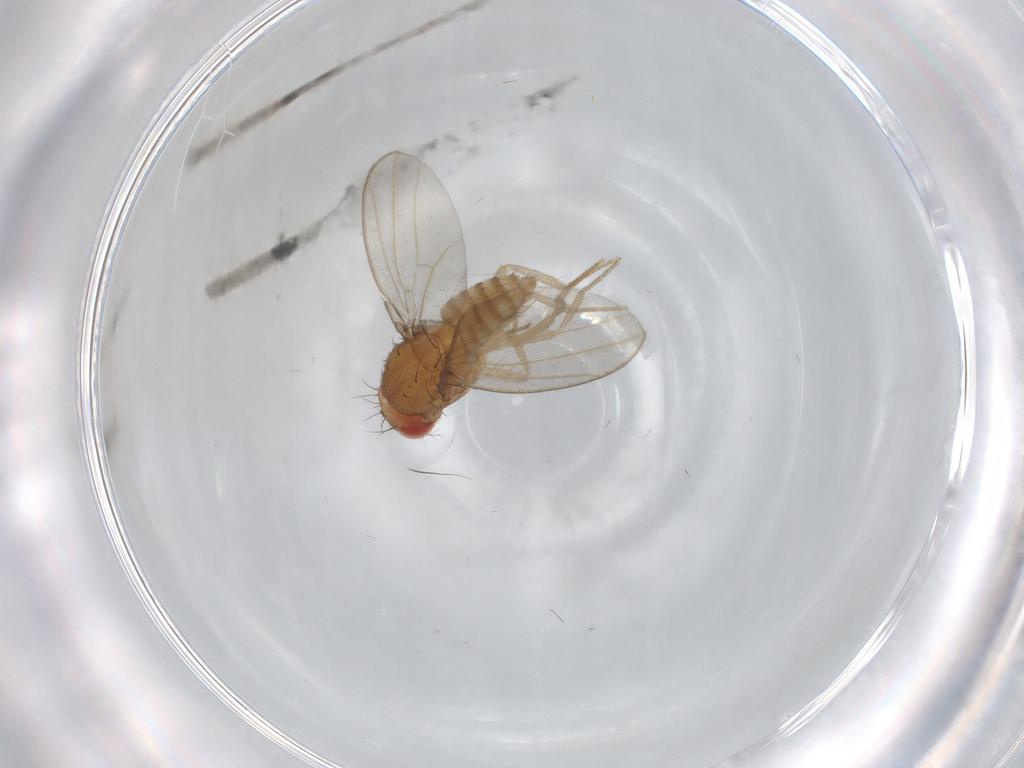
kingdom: Animalia
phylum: Arthropoda
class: Insecta
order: Diptera
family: Drosophilidae
